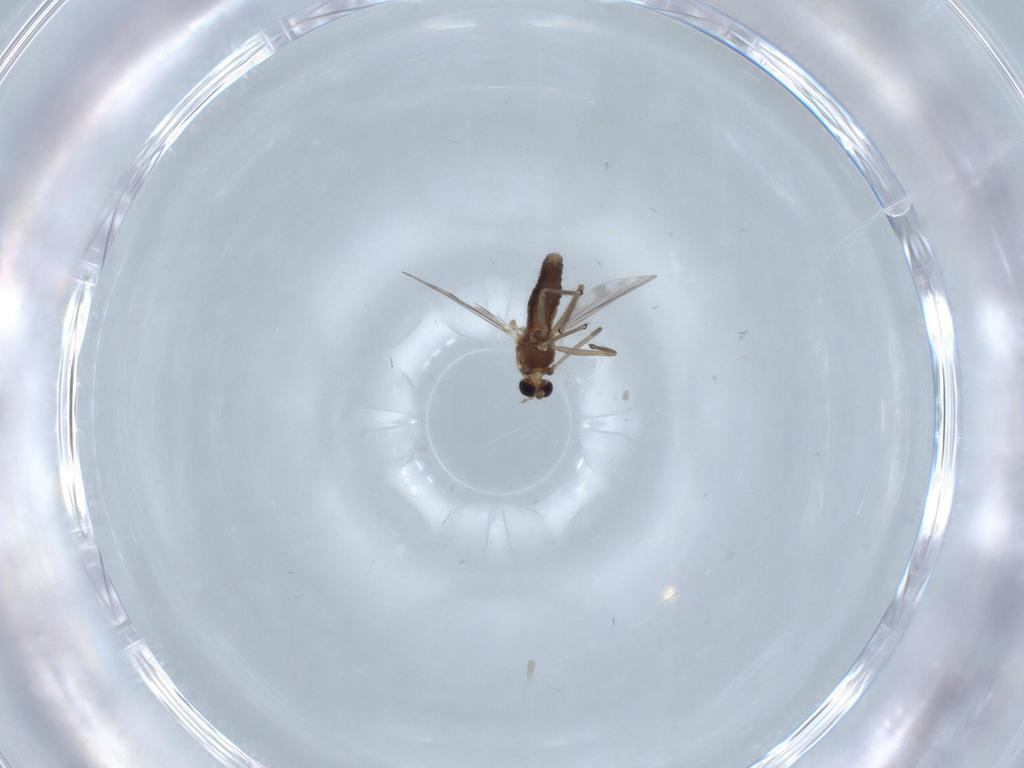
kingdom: Animalia
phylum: Arthropoda
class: Insecta
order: Diptera
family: Chironomidae
